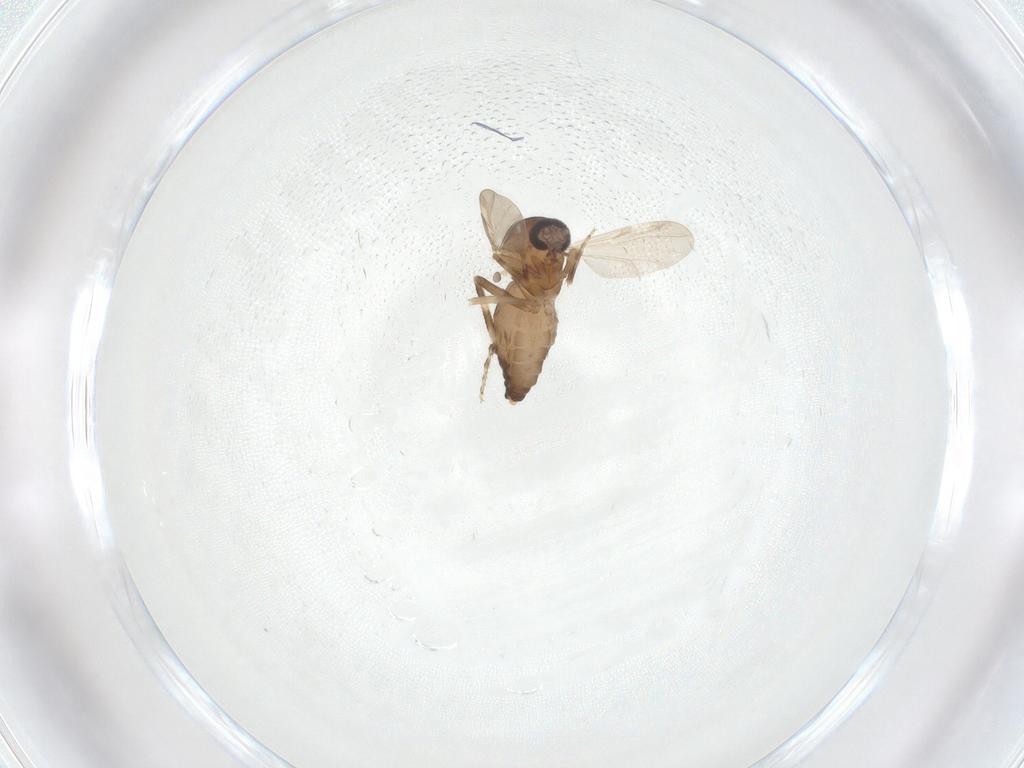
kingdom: Animalia
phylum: Arthropoda
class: Insecta
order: Diptera
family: Ceratopogonidae
